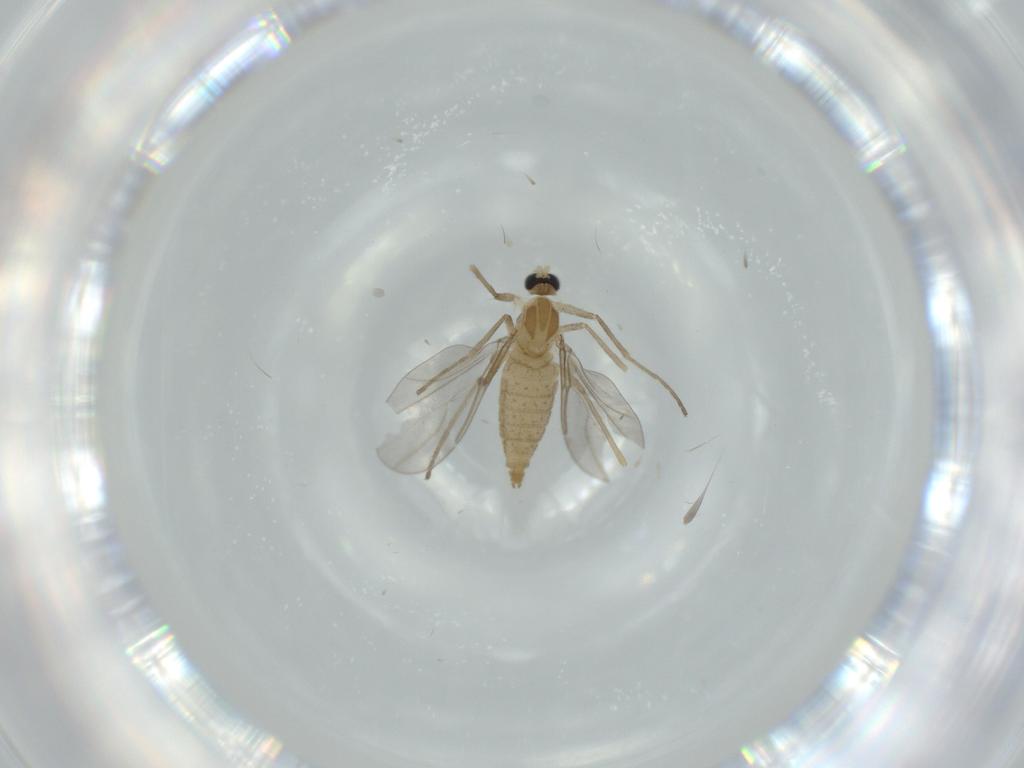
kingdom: Animalia
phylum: Arthropoda
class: Insecta
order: Diptera
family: Cecidomyiidae
